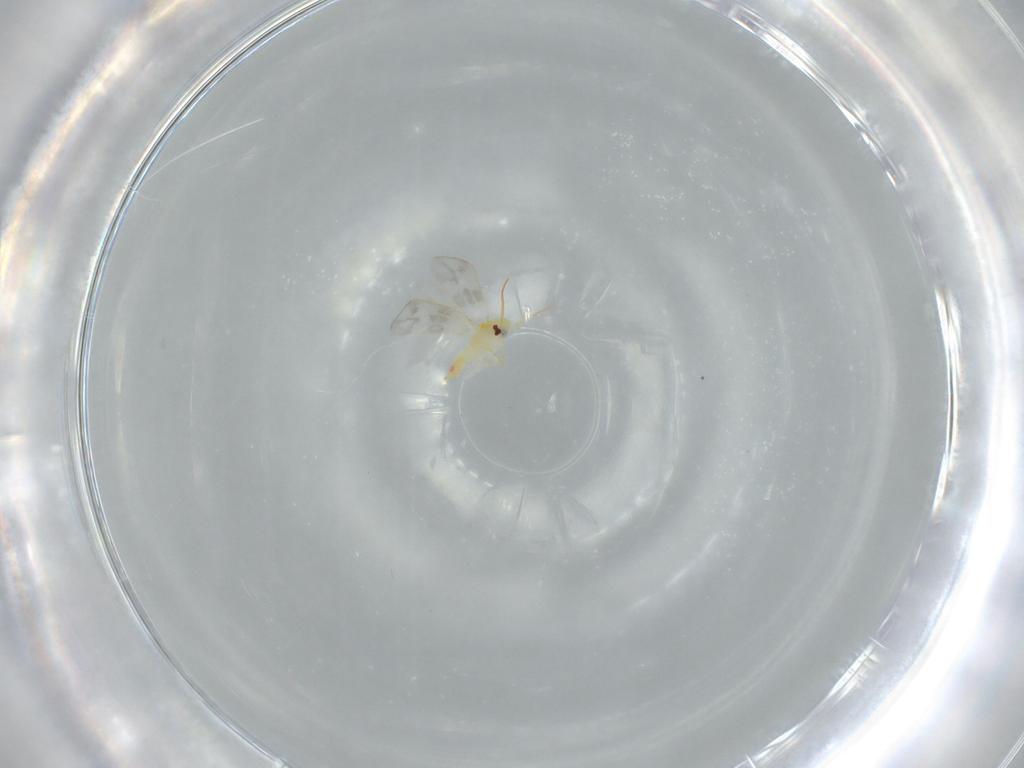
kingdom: Animalia
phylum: Arthropoda
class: Insecta
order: Hemiptera
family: Aleyrodidae
